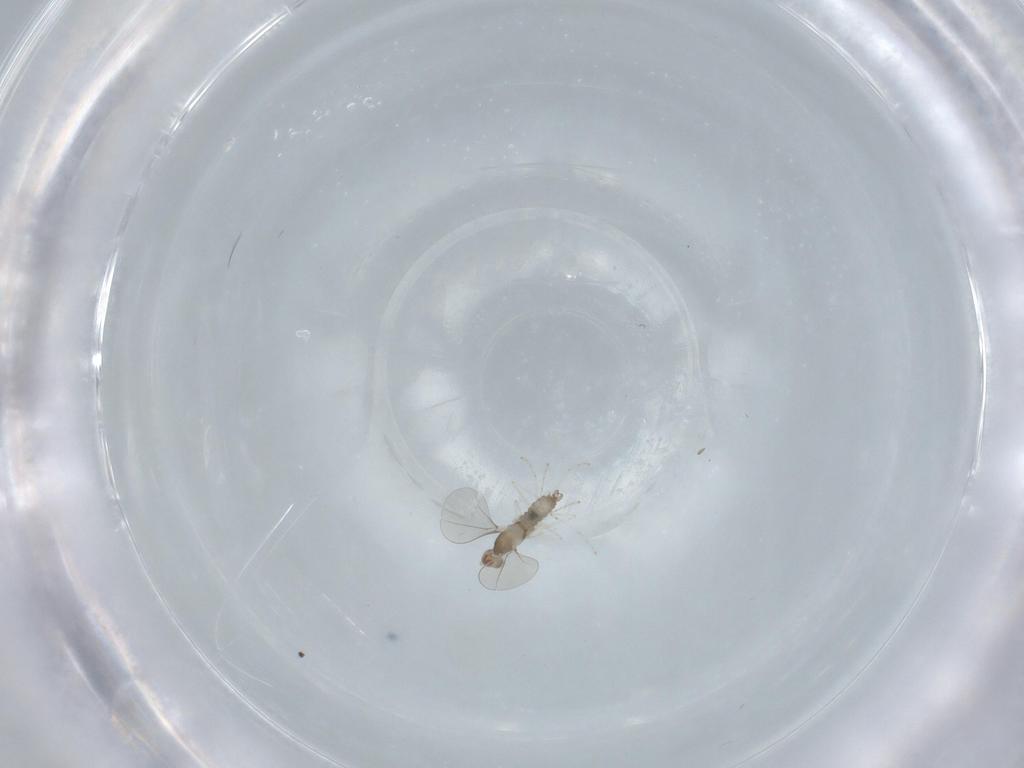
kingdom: Animalia
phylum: Arthropoda
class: Insecta
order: Diptera
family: Cecidomyiidae
